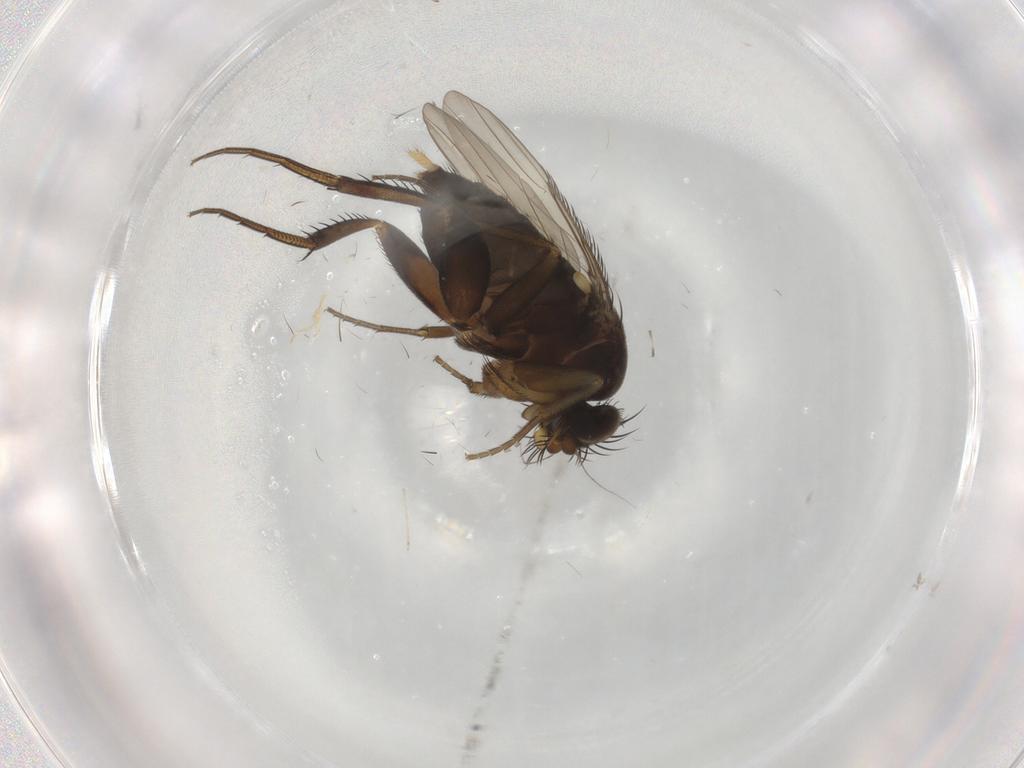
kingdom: Animalia
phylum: Arthropoda
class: Insecta
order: Diptera
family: Cecidomyiidae
